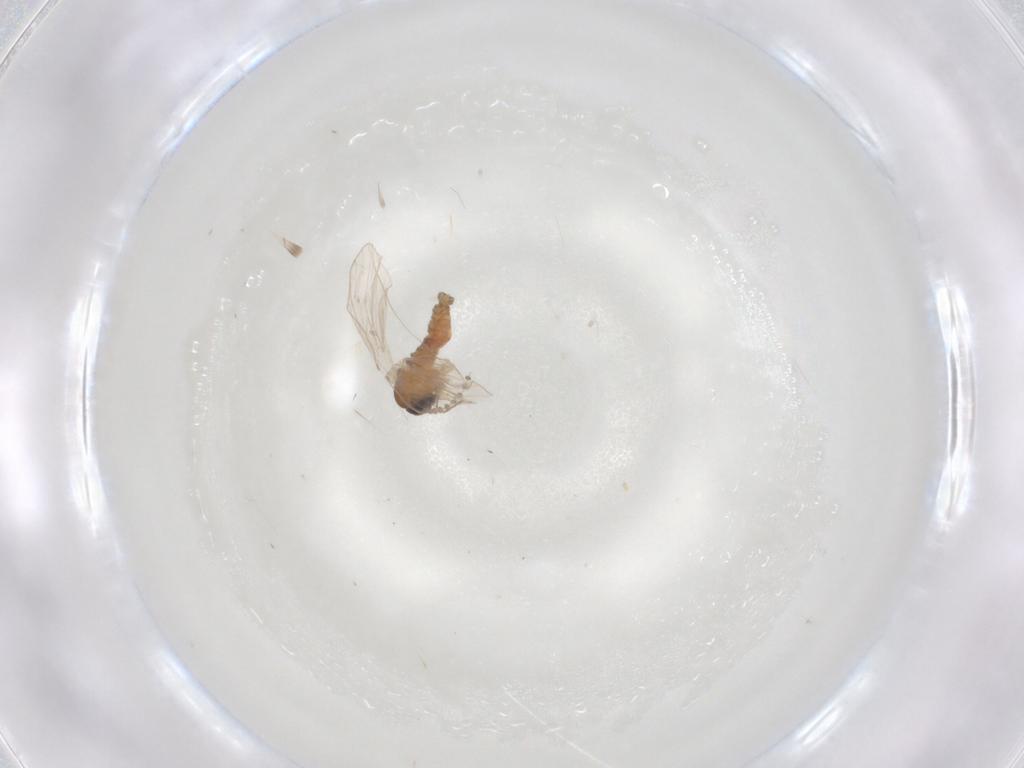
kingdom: Animalia
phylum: Arthropoda
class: Insecta
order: Diptera
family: Psychodidae
